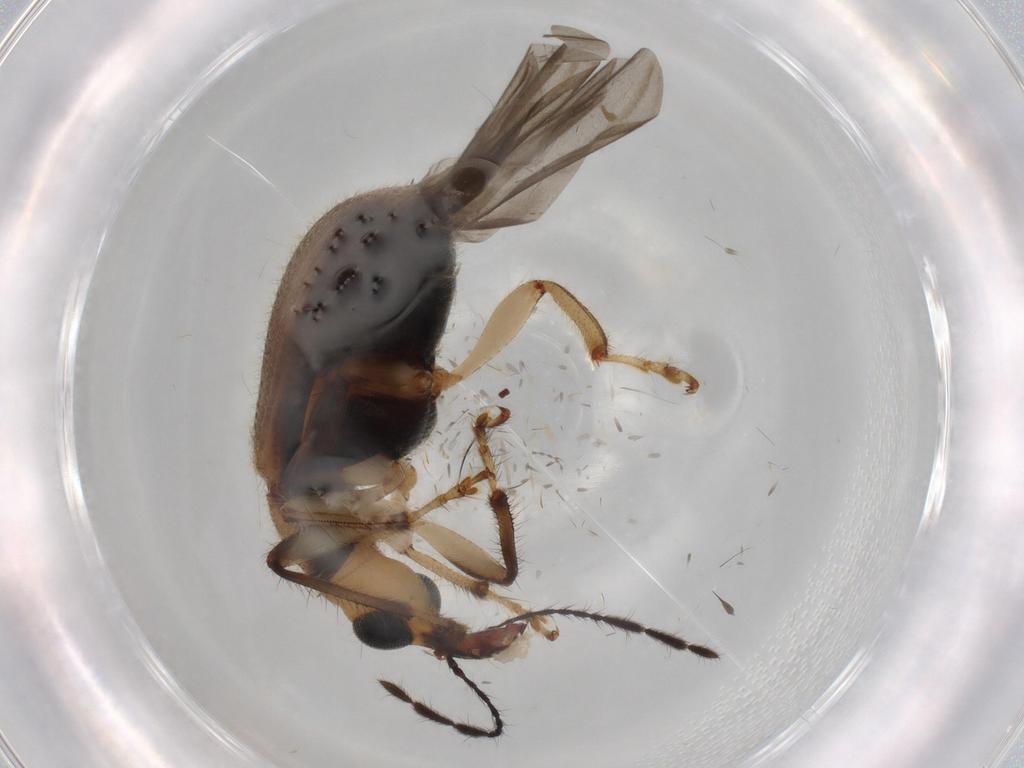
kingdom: Animalia
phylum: Arthropoda
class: Insecta
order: Coleoptera
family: Chrysomelidae
